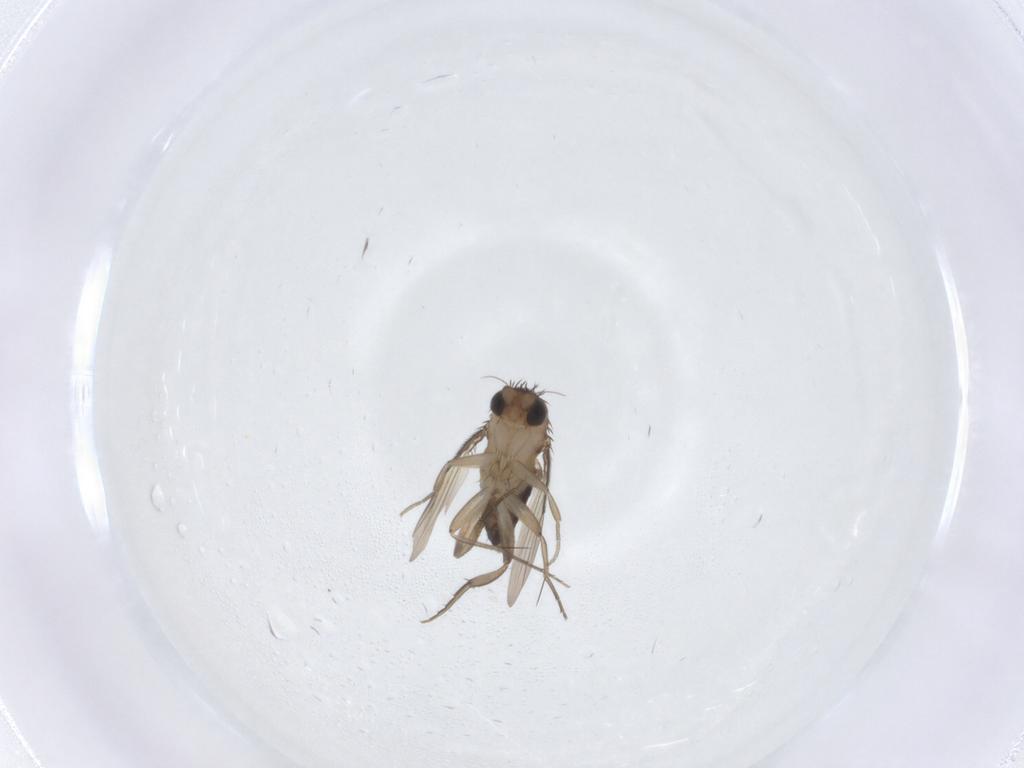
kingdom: Animalia
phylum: Arthropoda
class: Insecta
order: Diptera
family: Phoridae
